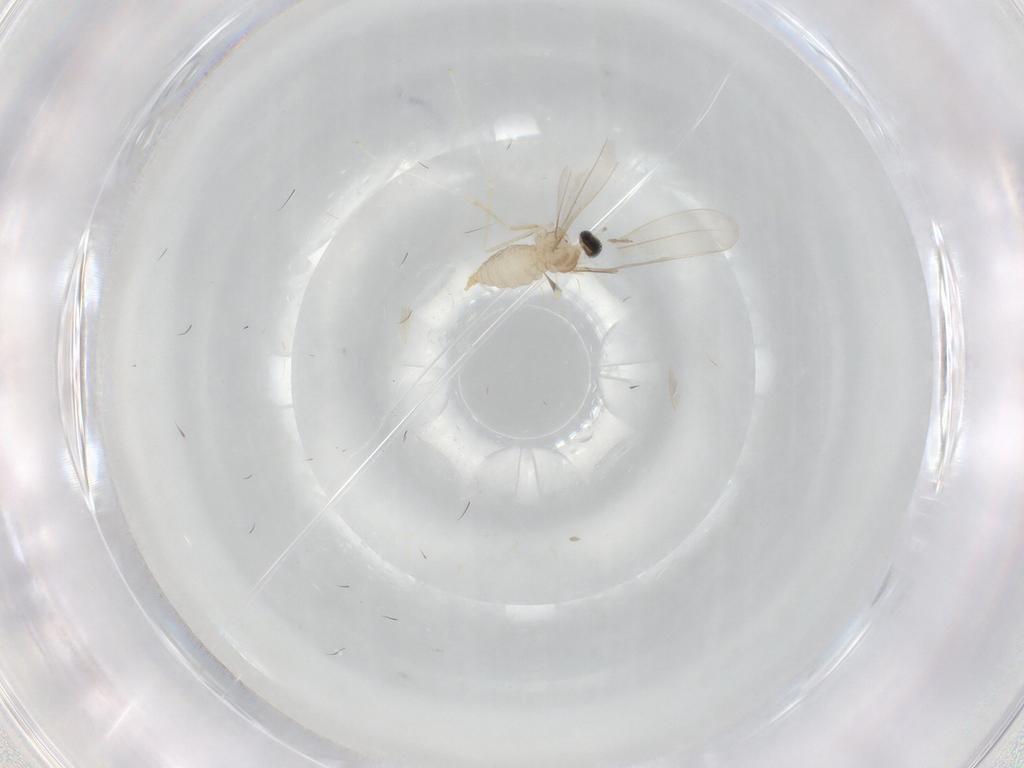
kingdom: Animalia
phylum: Arthropoda
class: Insecta
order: Diptera
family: Cecidomyiidae
